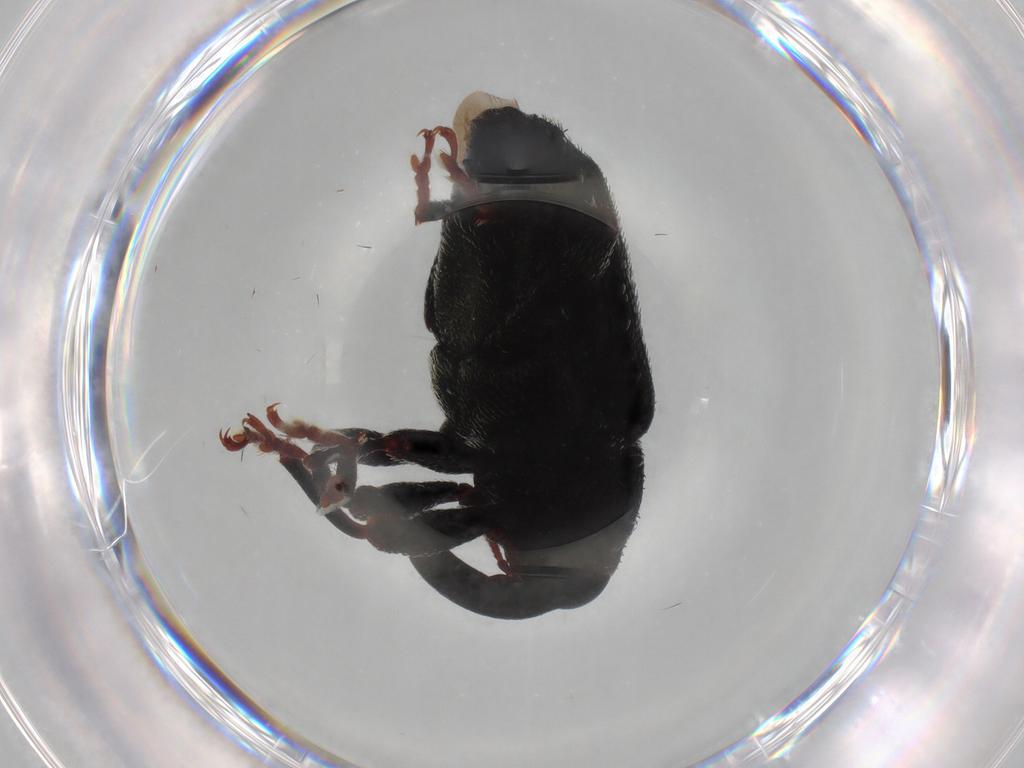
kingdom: Animalia
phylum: Arthropoda
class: Insecta
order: Coleoptera
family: Curculionidae
